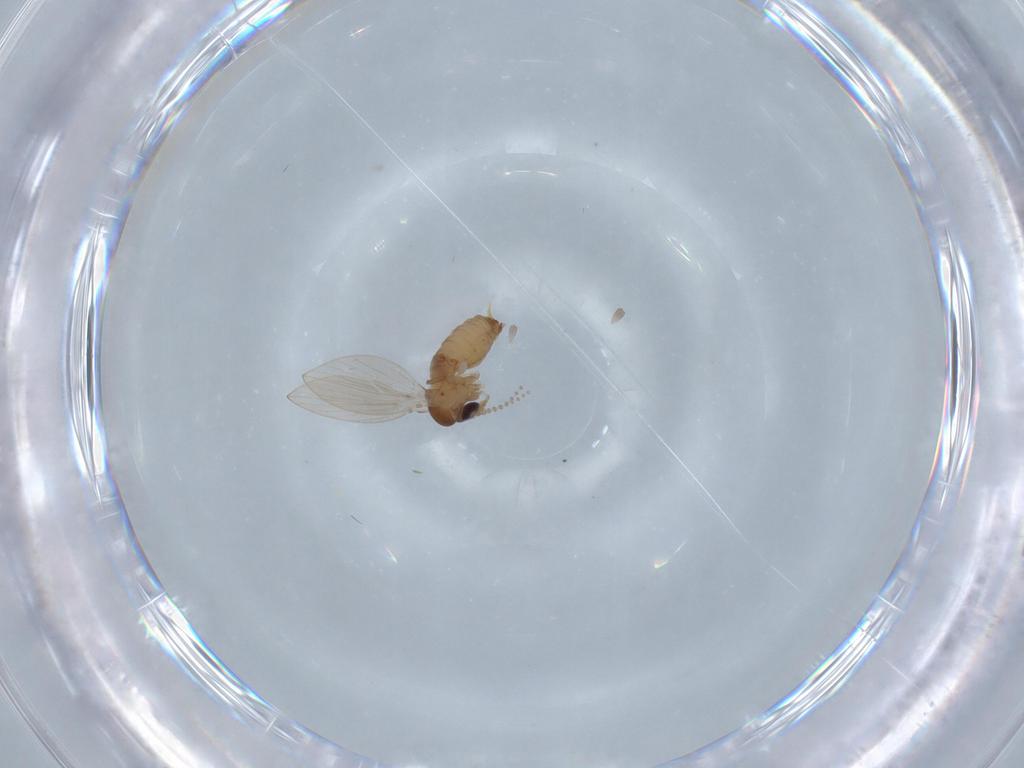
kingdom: Animalia
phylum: Arthropoda
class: Insecta
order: Diptera
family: Psychodidae
